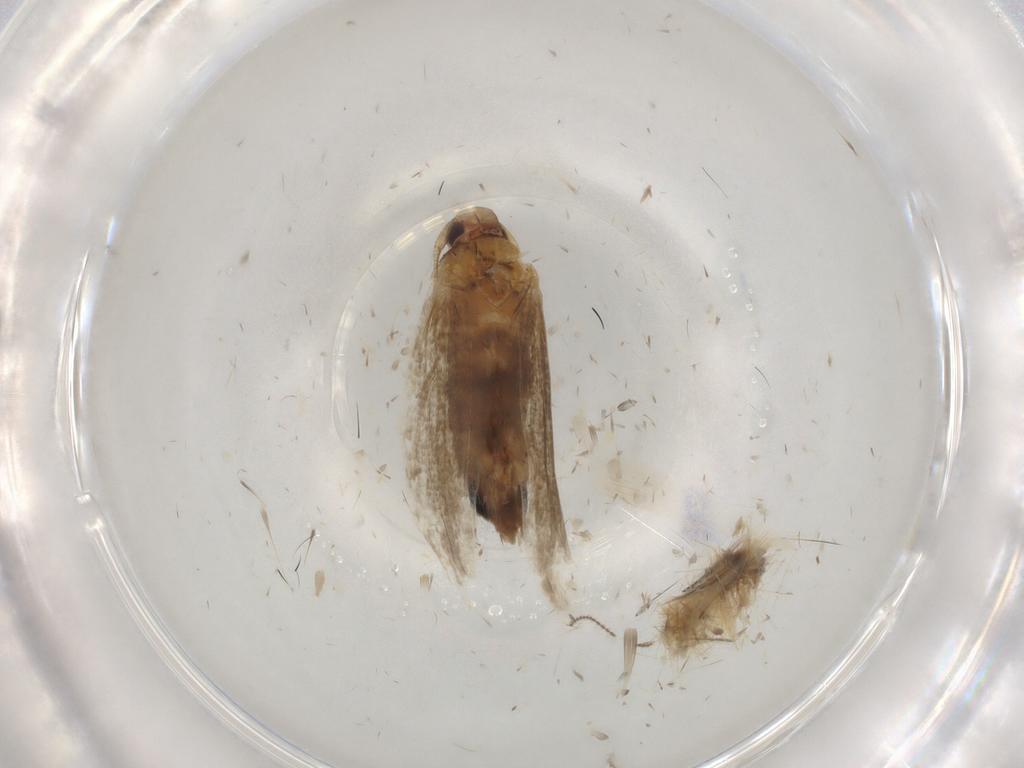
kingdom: Animalia
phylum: Arthropoda
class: Insecta
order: Lepidoptera
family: Cosmopterigidae
